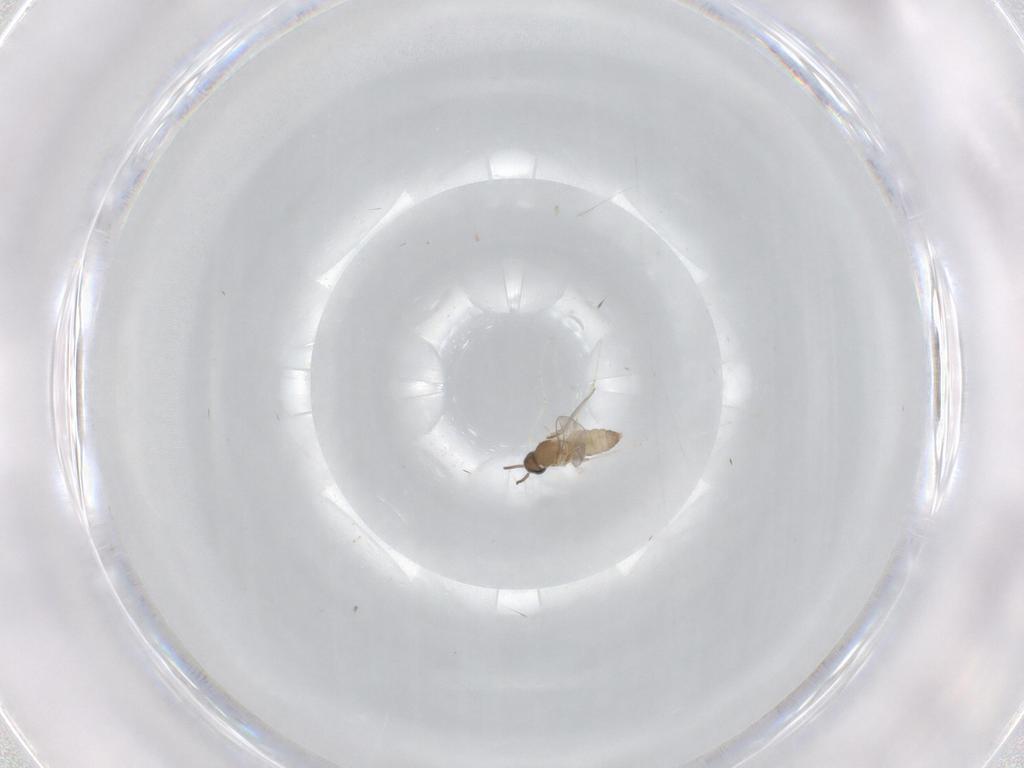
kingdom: Animalia
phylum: Arthropoda
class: Insecta
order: Diptera
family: Cecidomyiidae
